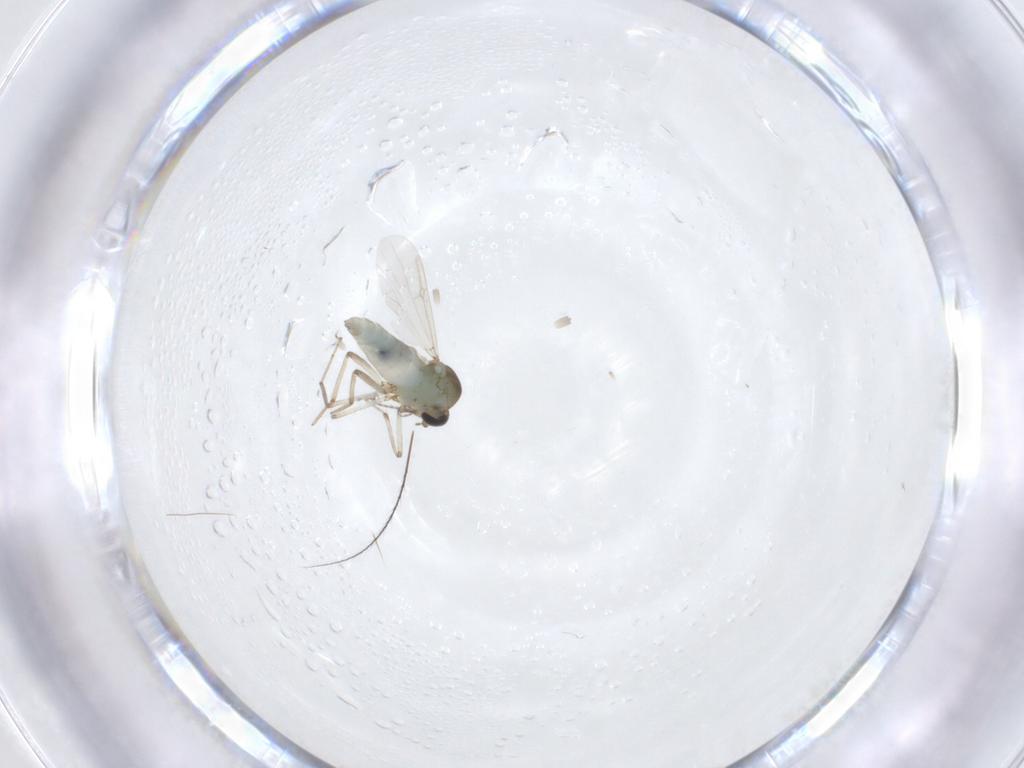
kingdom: Animalia
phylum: Arthropoda
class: Insecta
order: Diptera
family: Ceratopogonidae
